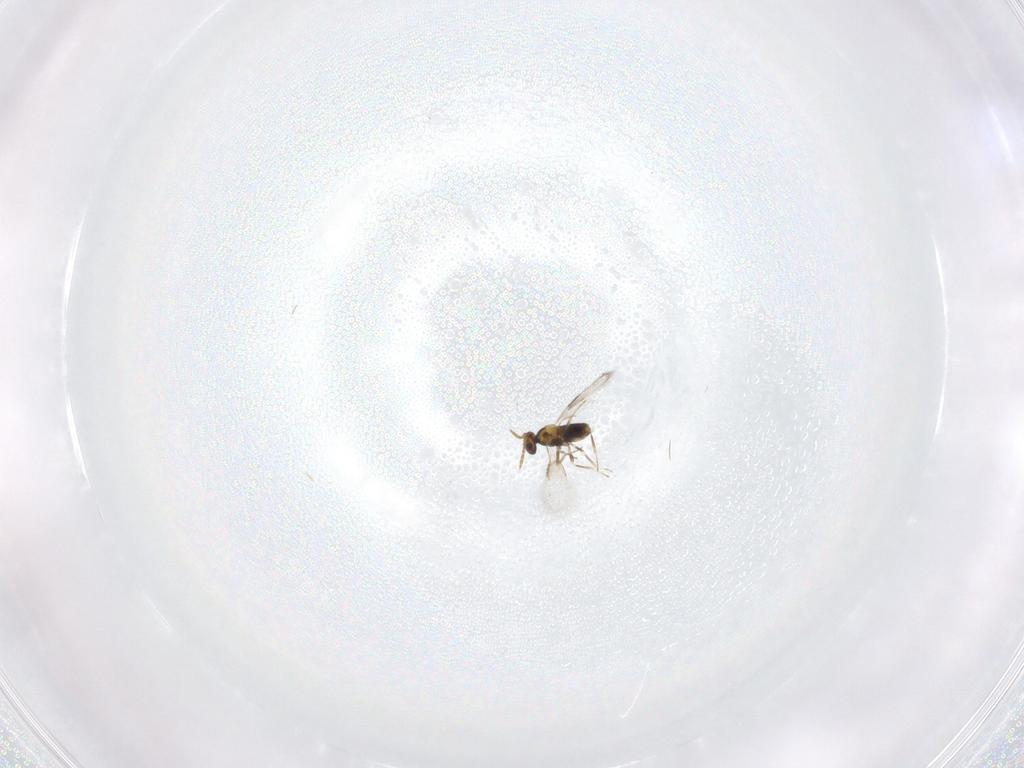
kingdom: Animalia
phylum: Arthropoda
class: Insecta
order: Hymenoptera
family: Aphelinidae
